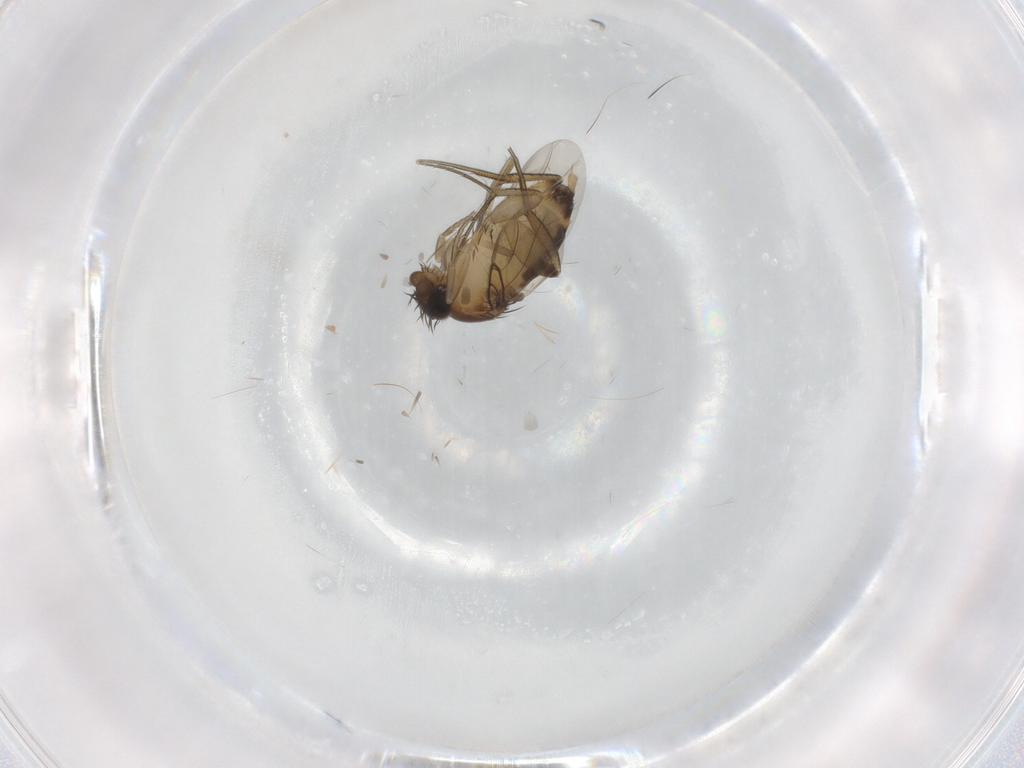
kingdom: Animalia
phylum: Arthropoda
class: Insecta
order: Diptera
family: Phoridae
